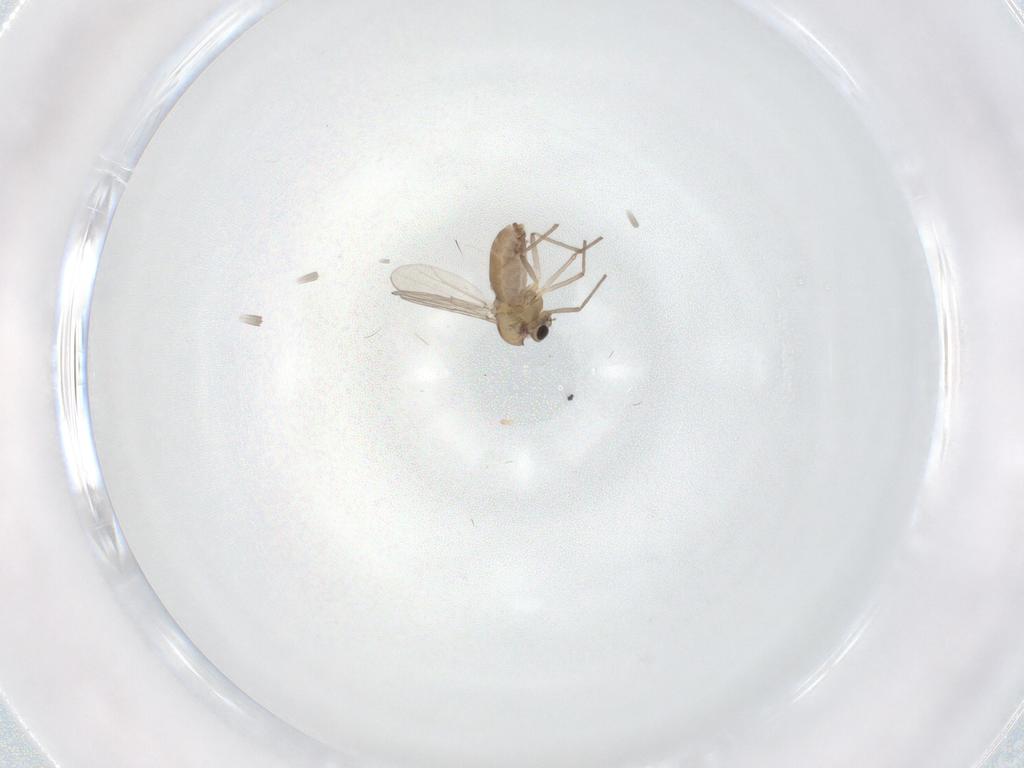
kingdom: Animalia
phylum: Arthropoda
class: Insecta
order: Diptera
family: Chironomidae
